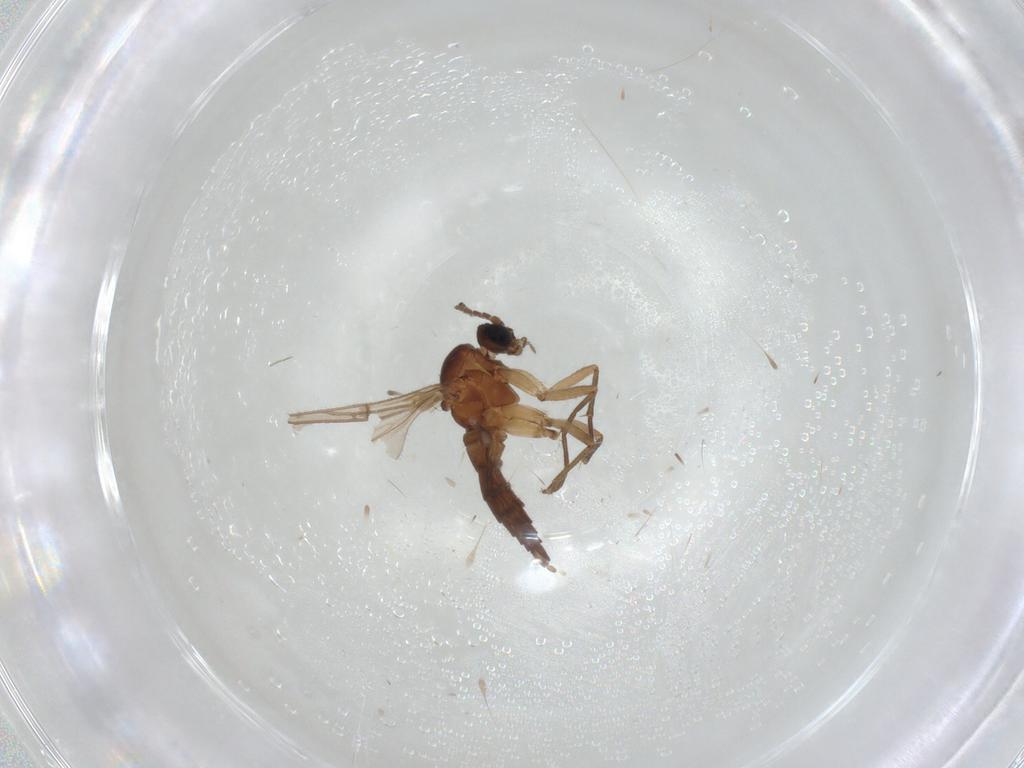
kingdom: Animalia
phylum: Arthropoda
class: Insecta
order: Diptera
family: Sciaridae
